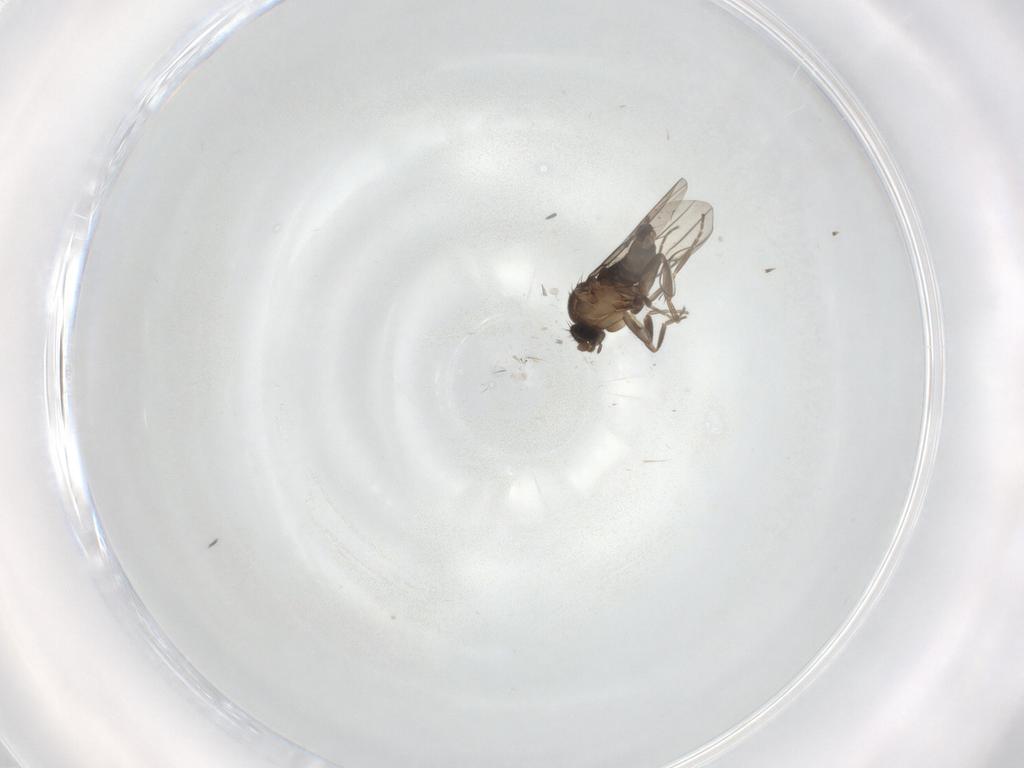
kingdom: Animalia
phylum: Arthropoda
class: Insecta
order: Diptera
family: Phoridae
